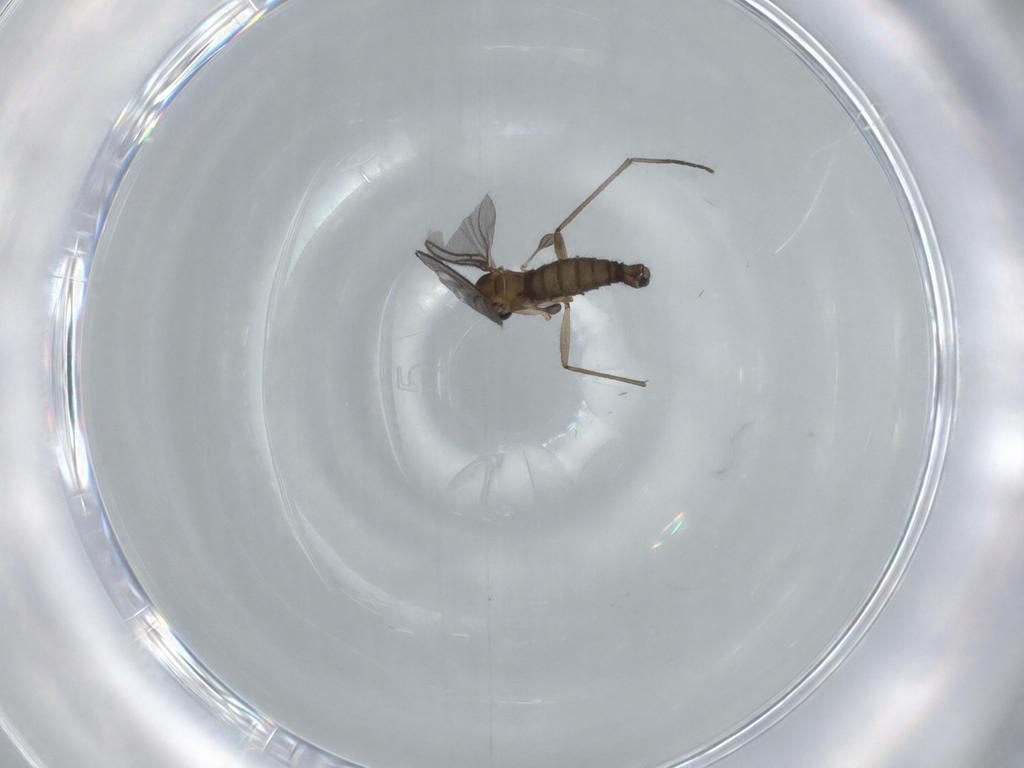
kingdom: Animalia
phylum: Arthropoda
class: Insecta
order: Diptera
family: Sciaridae
